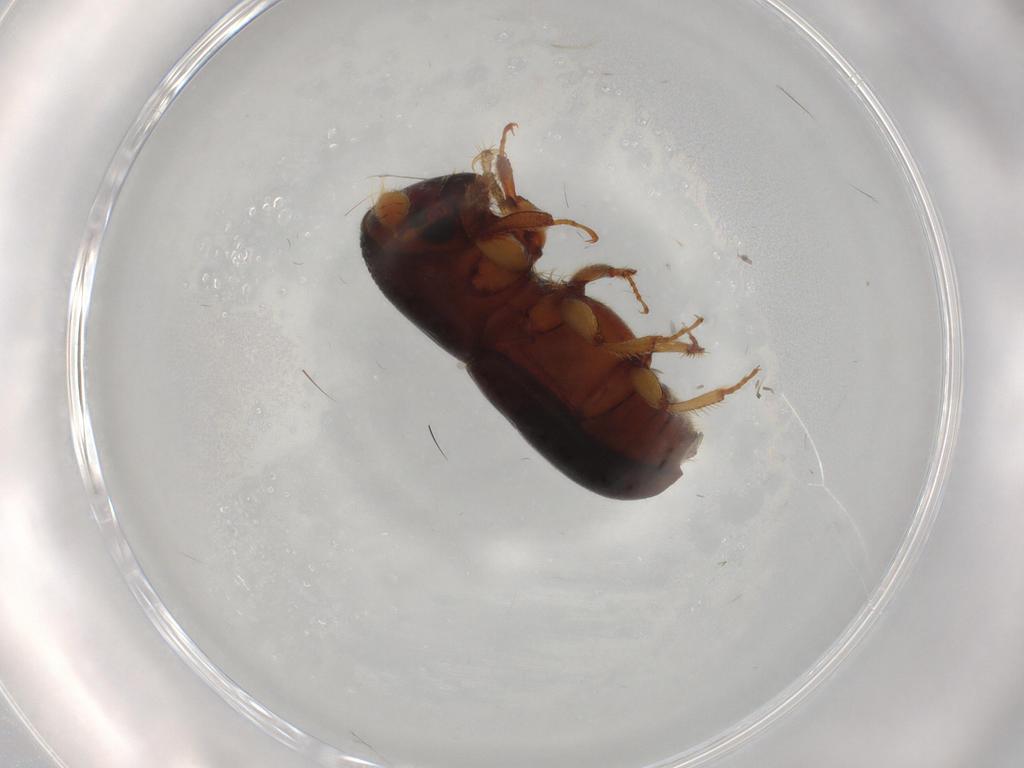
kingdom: Animalia
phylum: Arthropoda
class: Insecta
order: Coleoptera
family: Curculionidae
